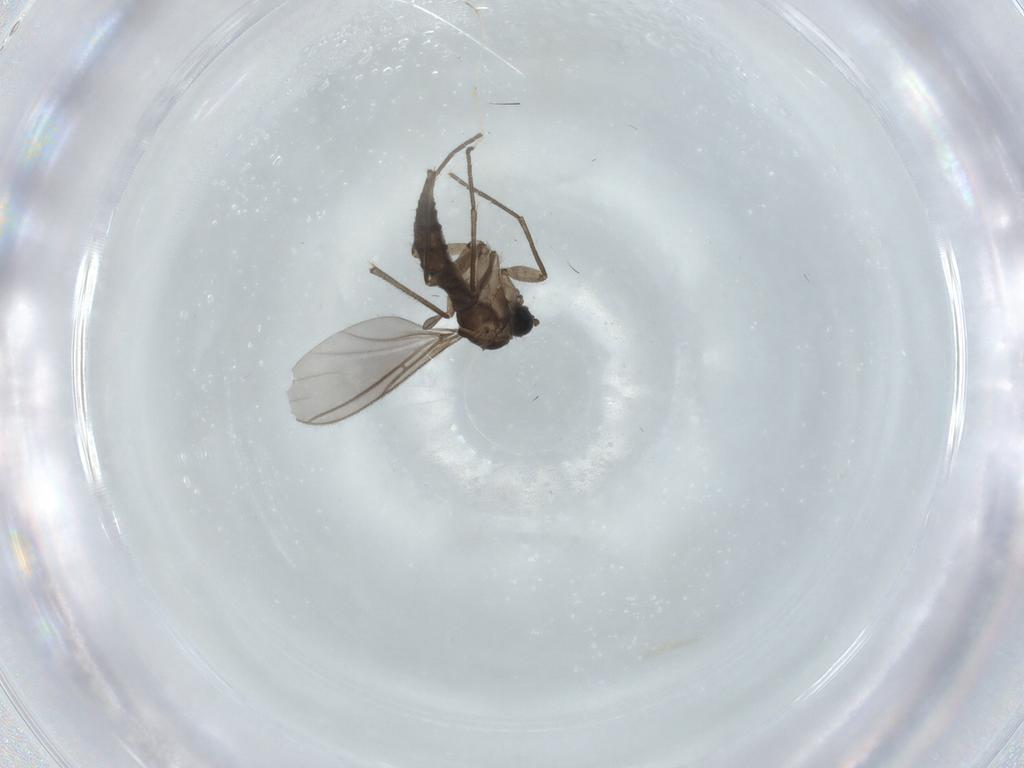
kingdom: Animalia
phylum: Arthropoda
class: Insecta
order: Diptera
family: Sciaridae
